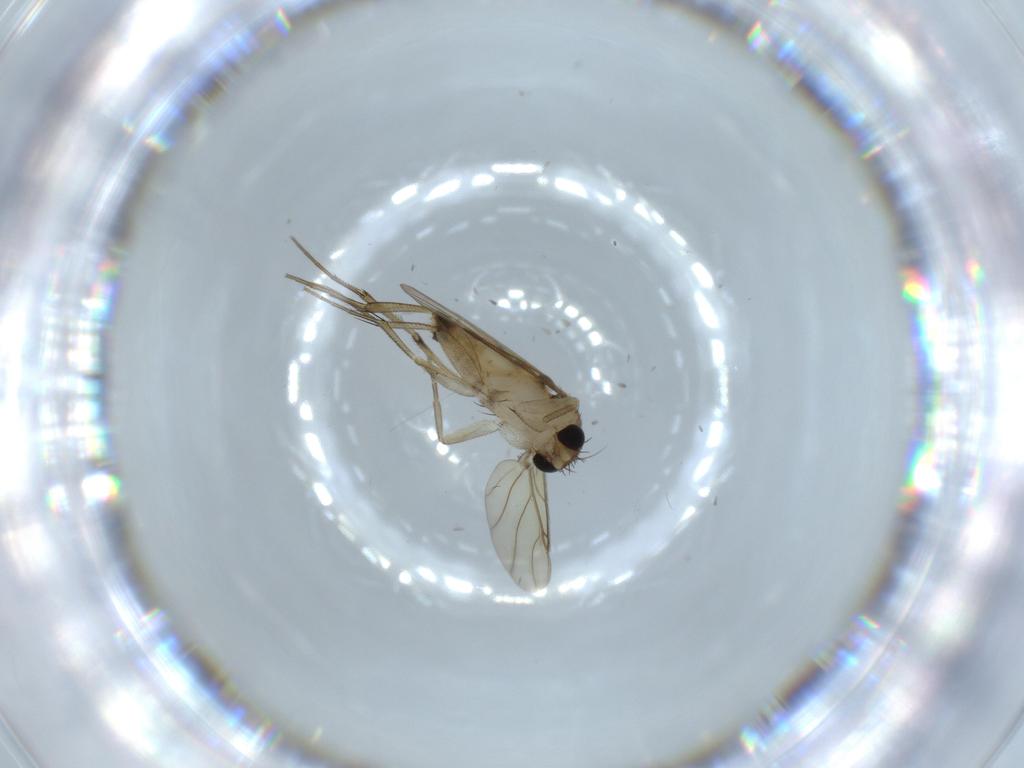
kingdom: Animalia
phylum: Arthropoda
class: Insecta
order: Diptera
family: Phoridae
